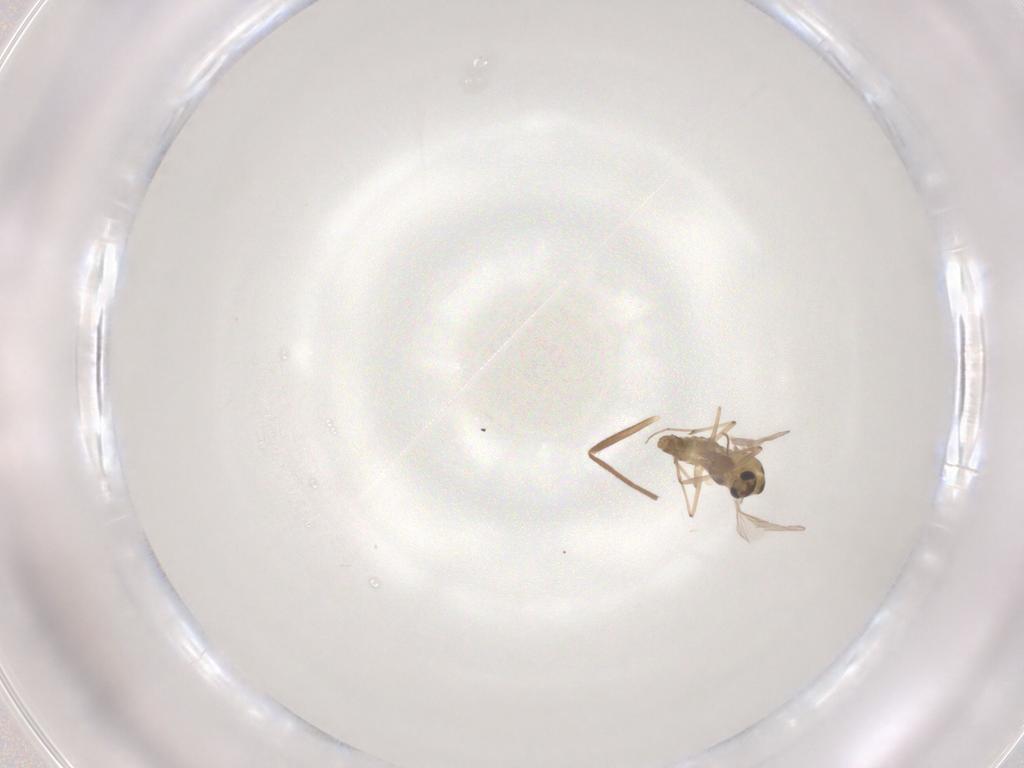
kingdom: Animalia
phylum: Arthropoda
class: Insecta
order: Diptera
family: Chironomidae
